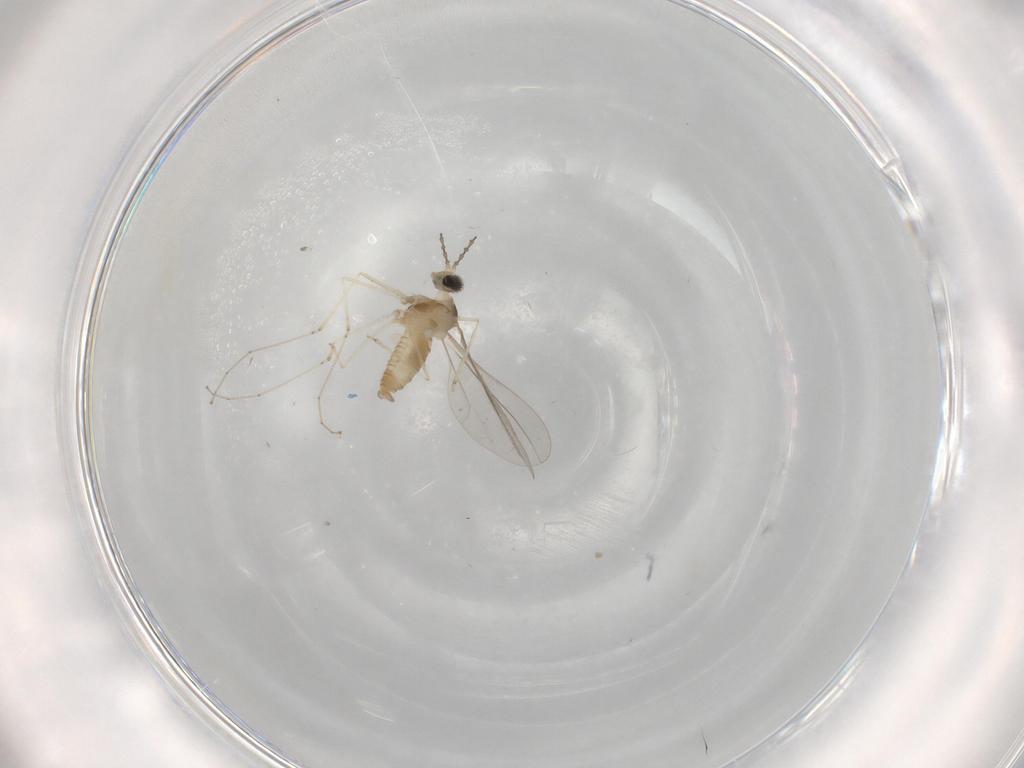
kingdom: Animalia
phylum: Arthropoda
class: Insecta
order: Diptera
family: Cecidomyiidae
